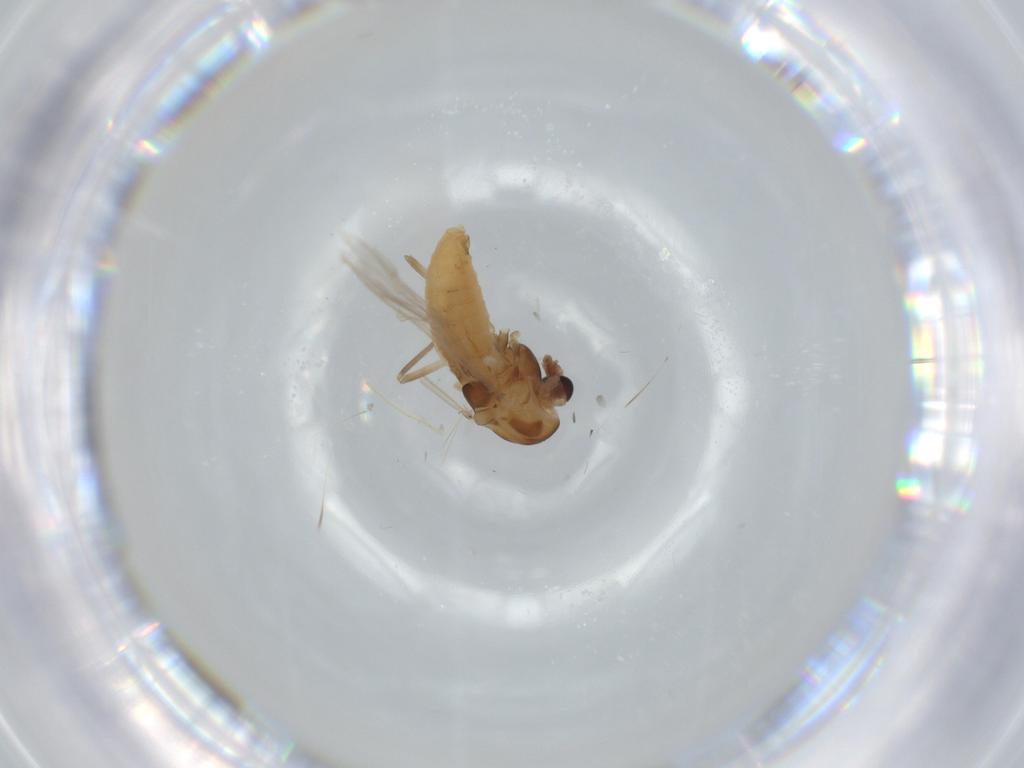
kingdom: Animalia
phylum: Arthropoda
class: Insecta
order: Diptera
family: Chironomidae
